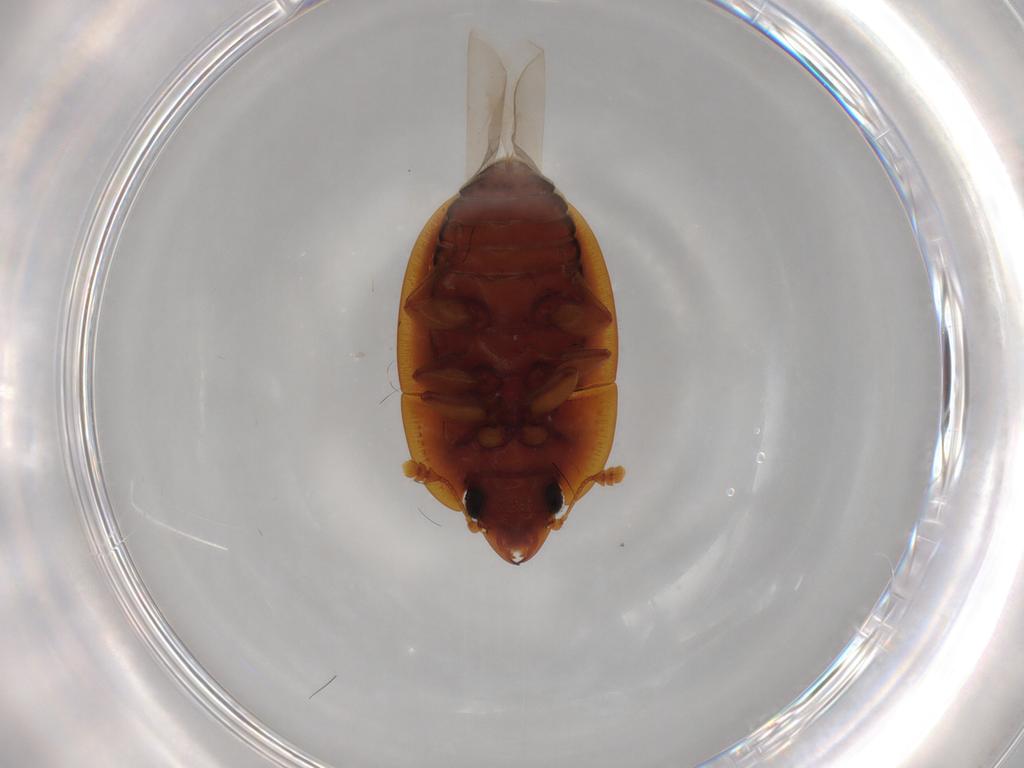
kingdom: Animalia
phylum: Arthropoda
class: Insecta
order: Coleoptera
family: Nitidulidae
